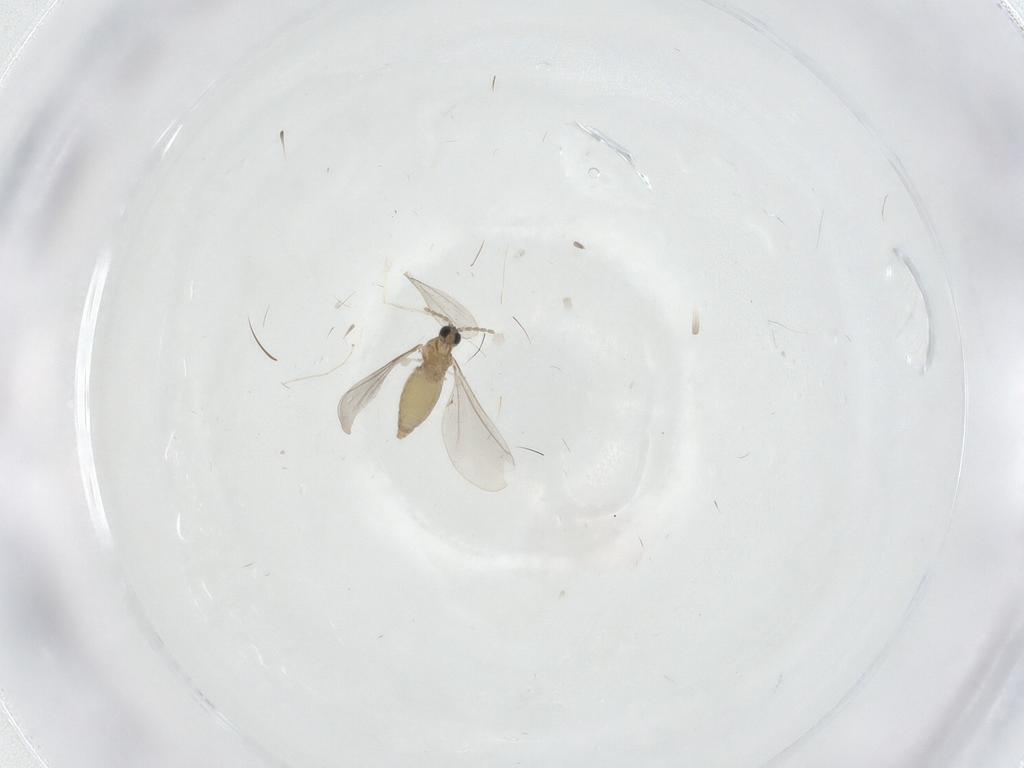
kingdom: Animalia
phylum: Arthropoda
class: Insecta
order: Diptera
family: Cecidomyiidae
